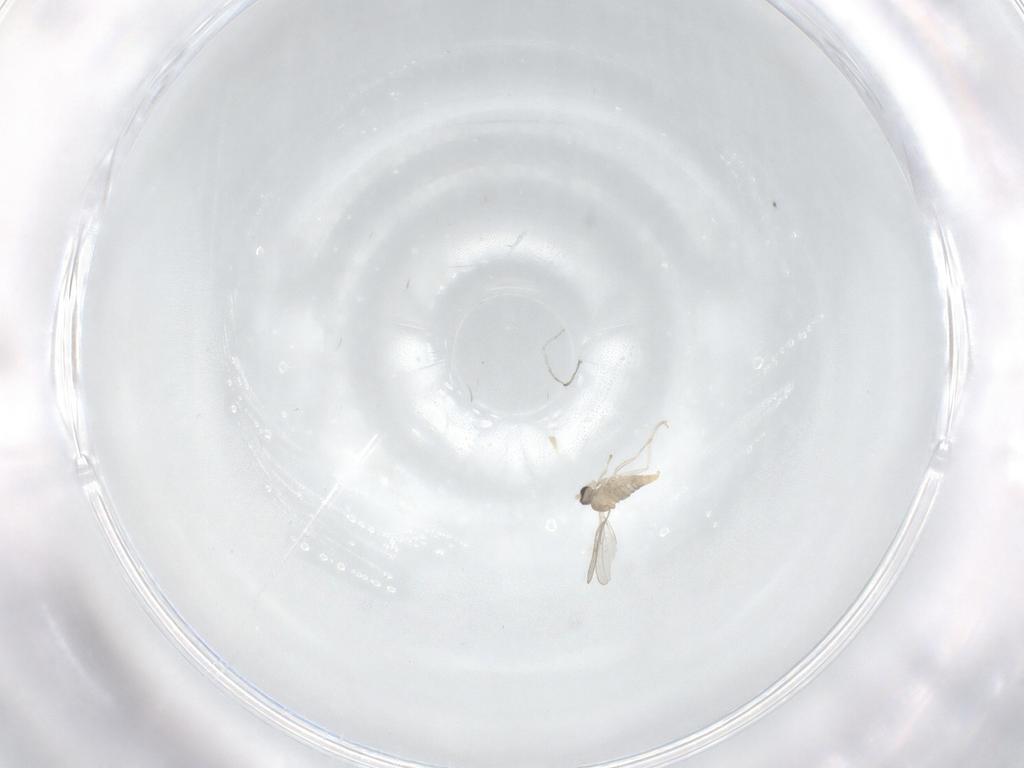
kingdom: Animalia
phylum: Arthropoda
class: Insecta
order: Diptera
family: Cecidomyiidae
